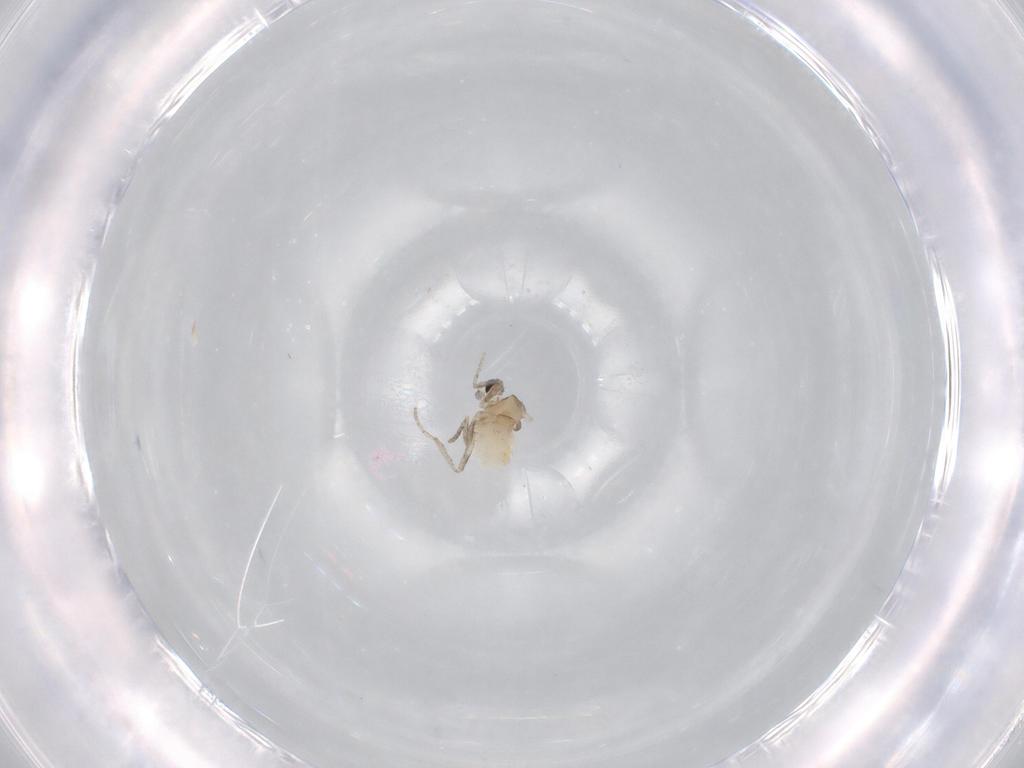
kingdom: Animalia
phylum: Arthropoda
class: Insecta
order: Diptera
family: Cecidomyiidae
